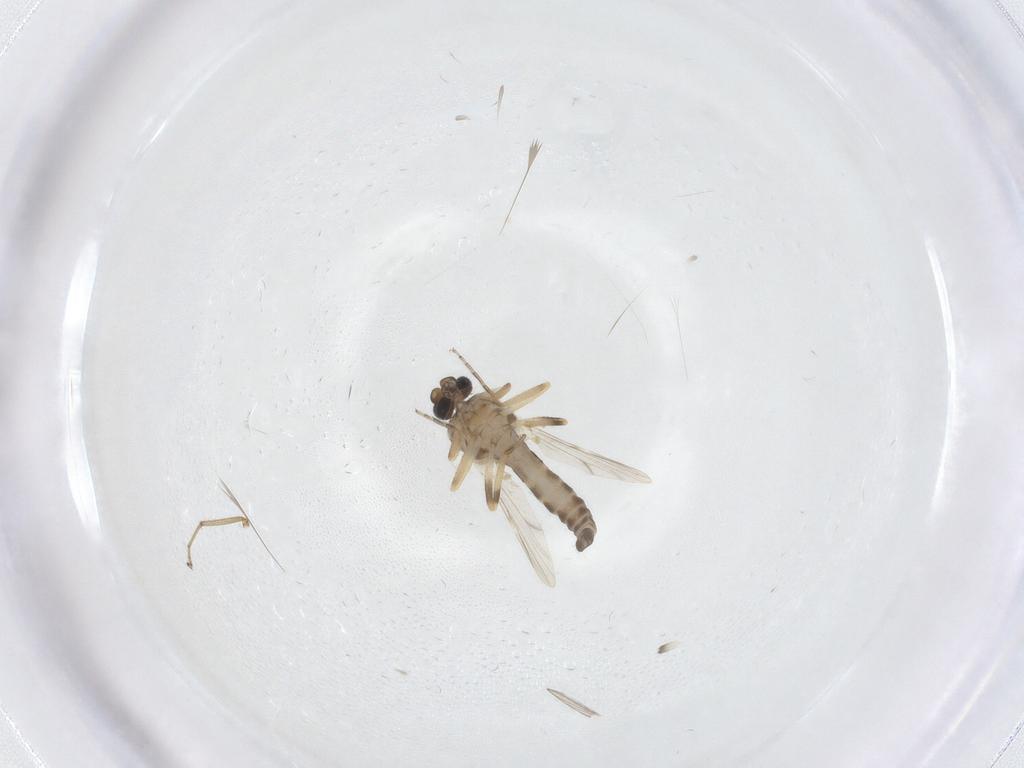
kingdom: Animalia
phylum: Arthropoda
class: Insecta
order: Diptera
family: Ceratopogonidae
